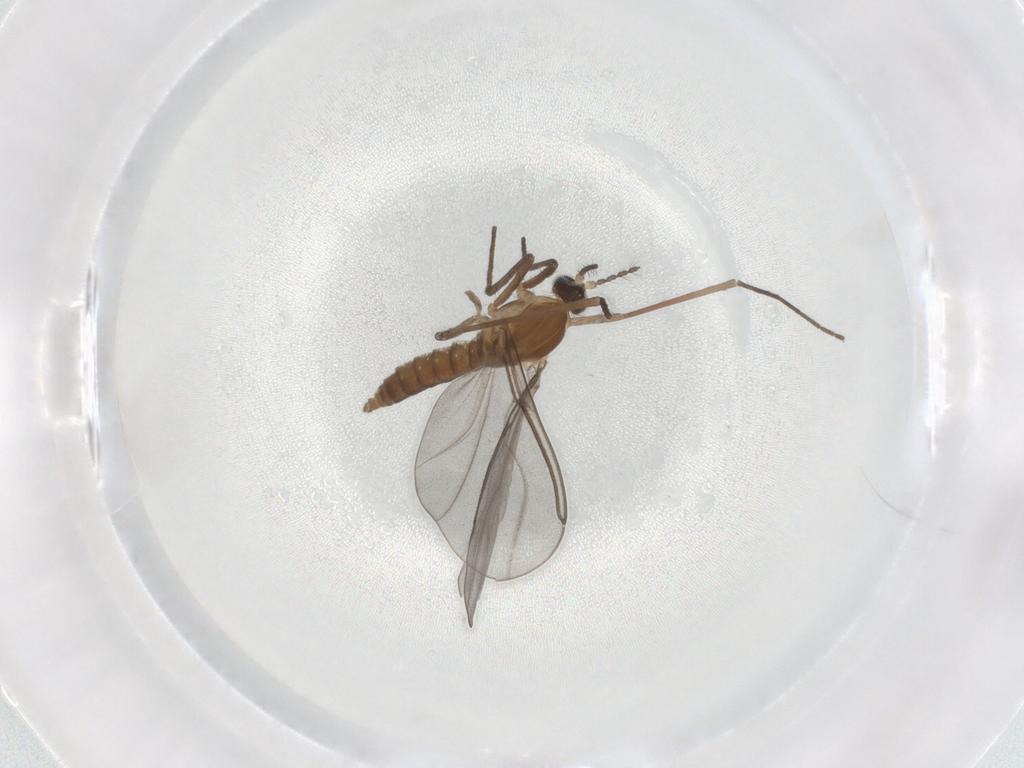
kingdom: Animalia
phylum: Arthropoda
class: Insecta
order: Diptera
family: Cecidomyiidae
